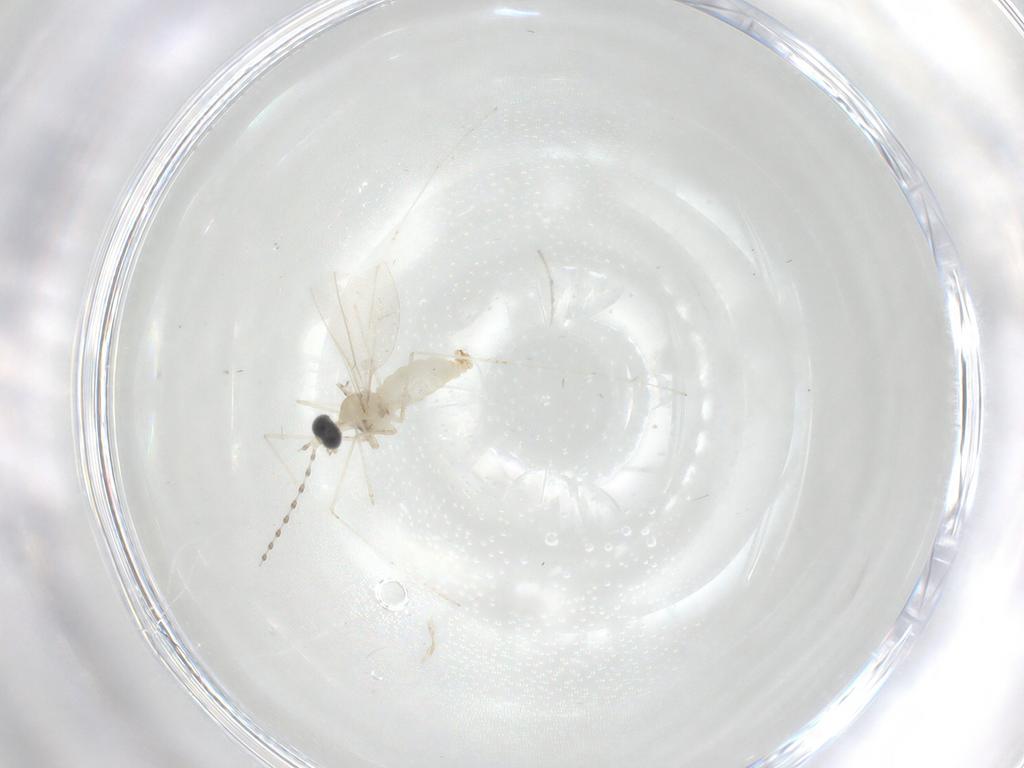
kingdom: Animalia
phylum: Arthropoda
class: Insecta
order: Diptera
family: Cecidomyiidae
